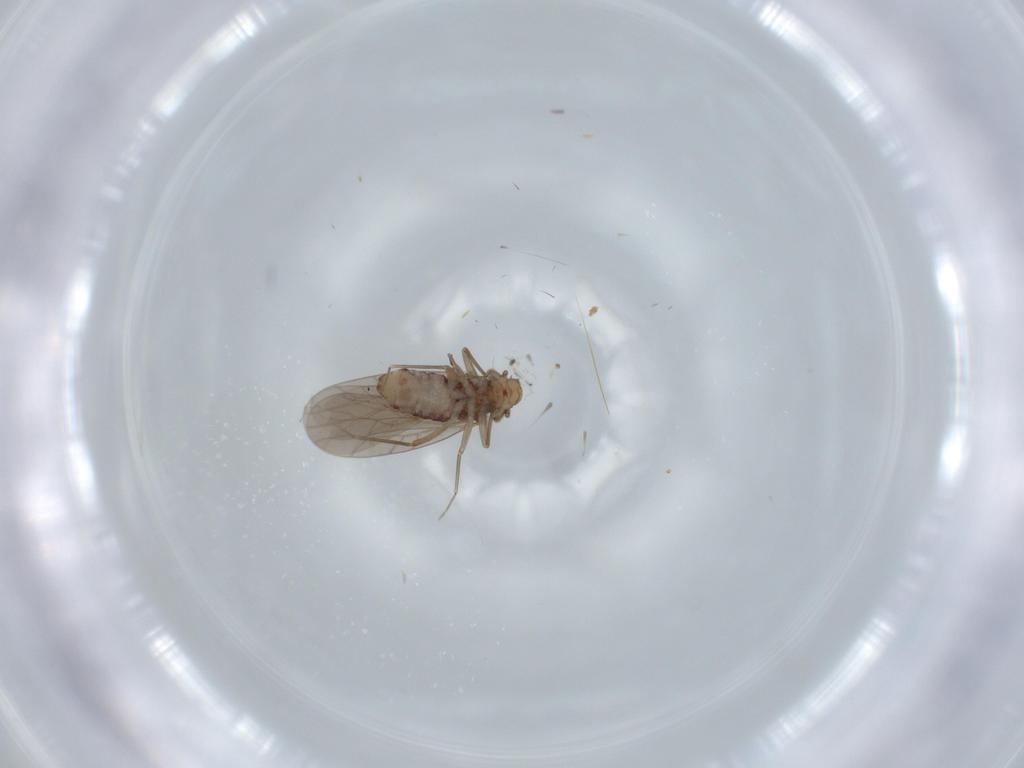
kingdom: Animalia
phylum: Arthropoda
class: Insecta
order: Psocodea
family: Lepidopsocidae
